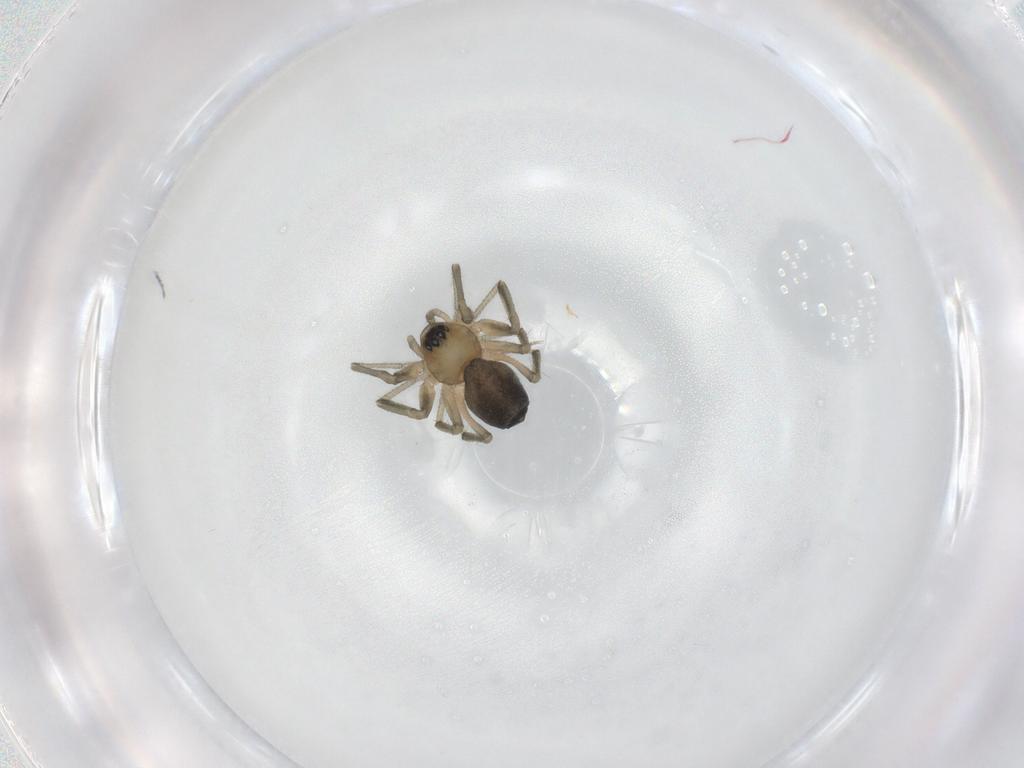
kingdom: Animalia
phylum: Arthropoda
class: Arachnida
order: Araneae
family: Linyphiidae
